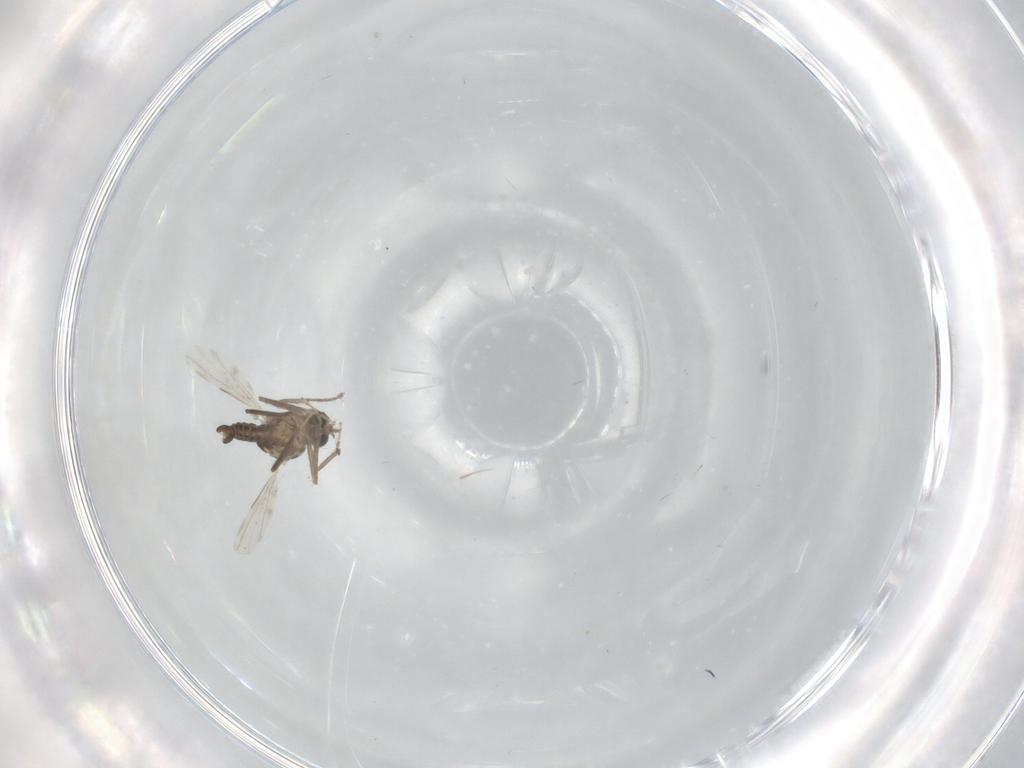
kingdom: Animalia
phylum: Arthropoda
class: Insecta
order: Diptera
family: Ceratopogonidae
